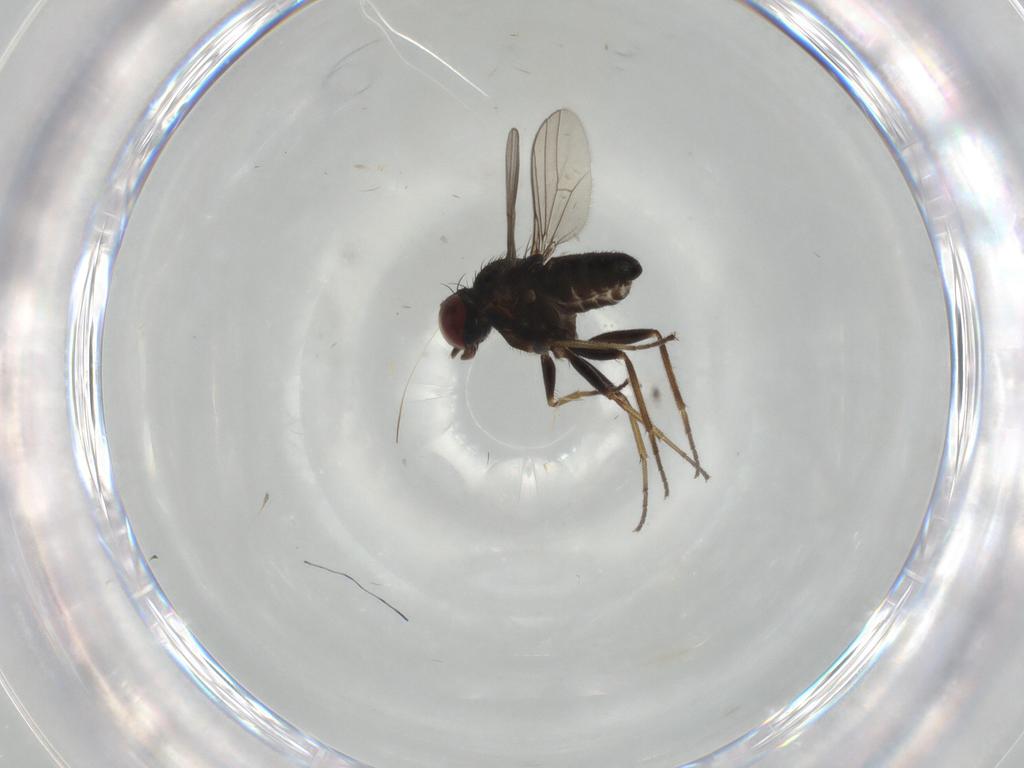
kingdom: Animalia
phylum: Arthropoda
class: Insecta
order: Diptera
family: Dolichopodidae
